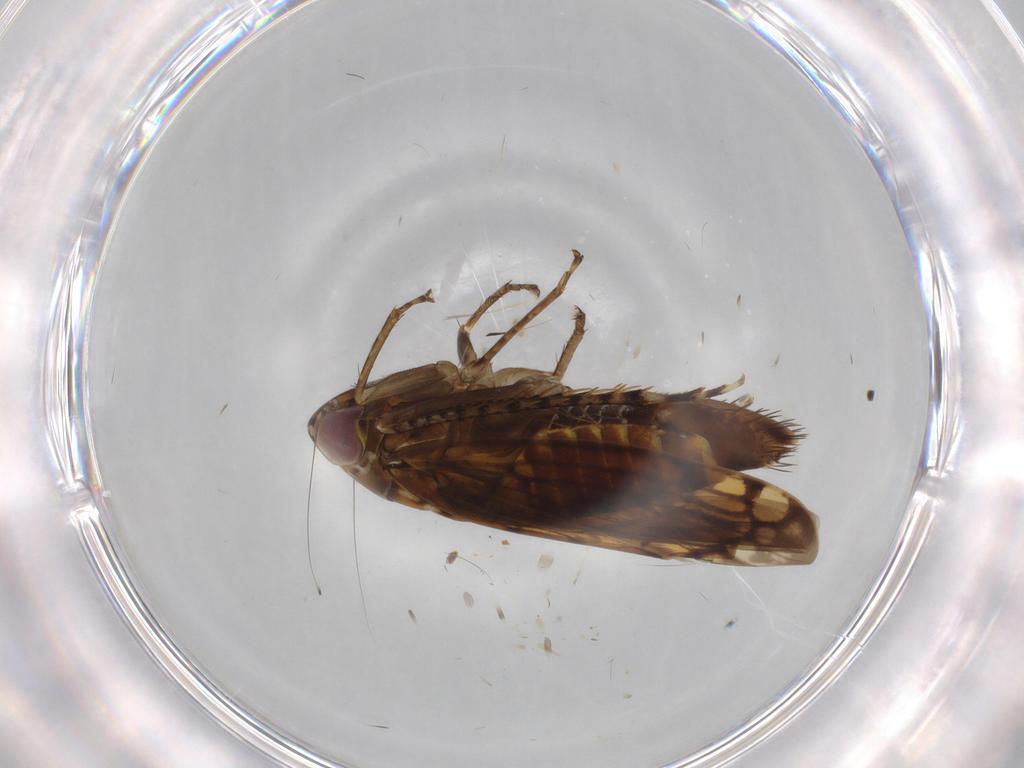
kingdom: Animalia
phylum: Arthropoda
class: Insecta
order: Hemiptera
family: Cicadellidae
